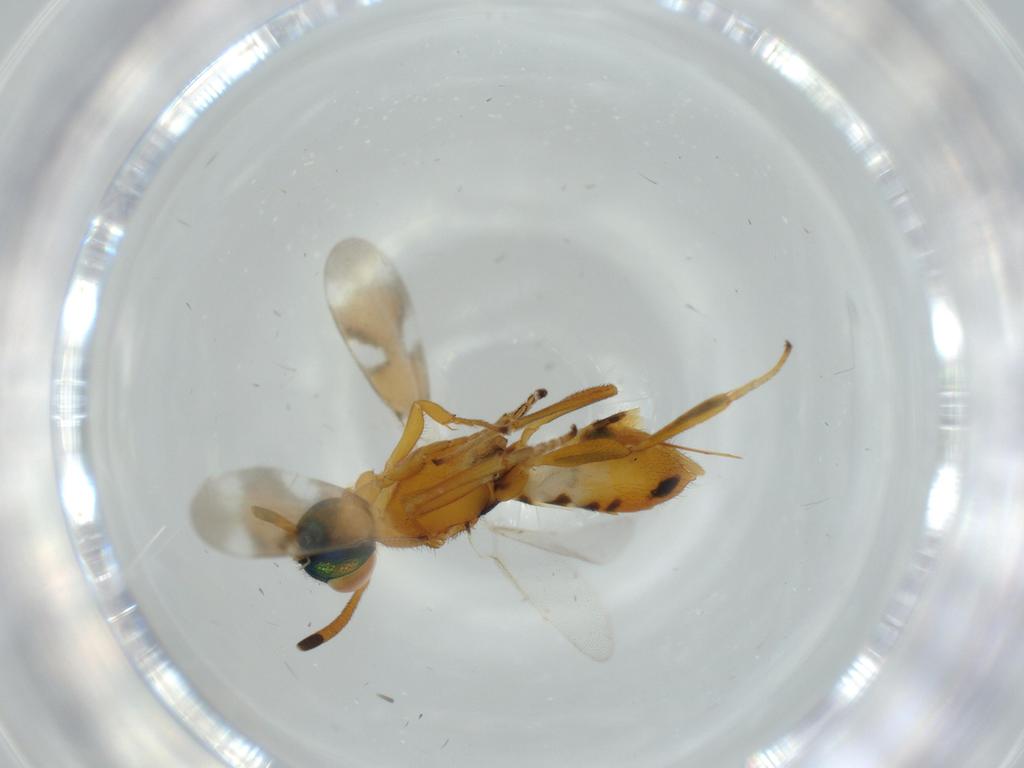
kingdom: Animalia
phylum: Arthropoda
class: Insecta
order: Hymenoptera
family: Eupelmidae
